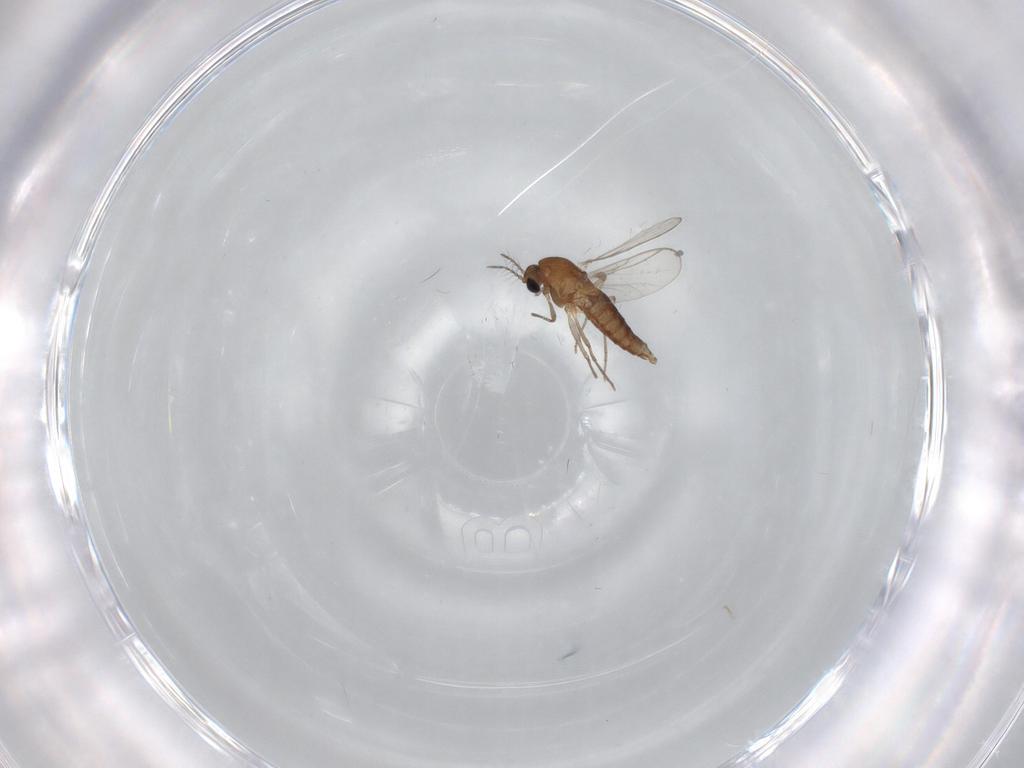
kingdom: Animalia
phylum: Arthropoda
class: Insecta
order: Diptera
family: Chironomidae
